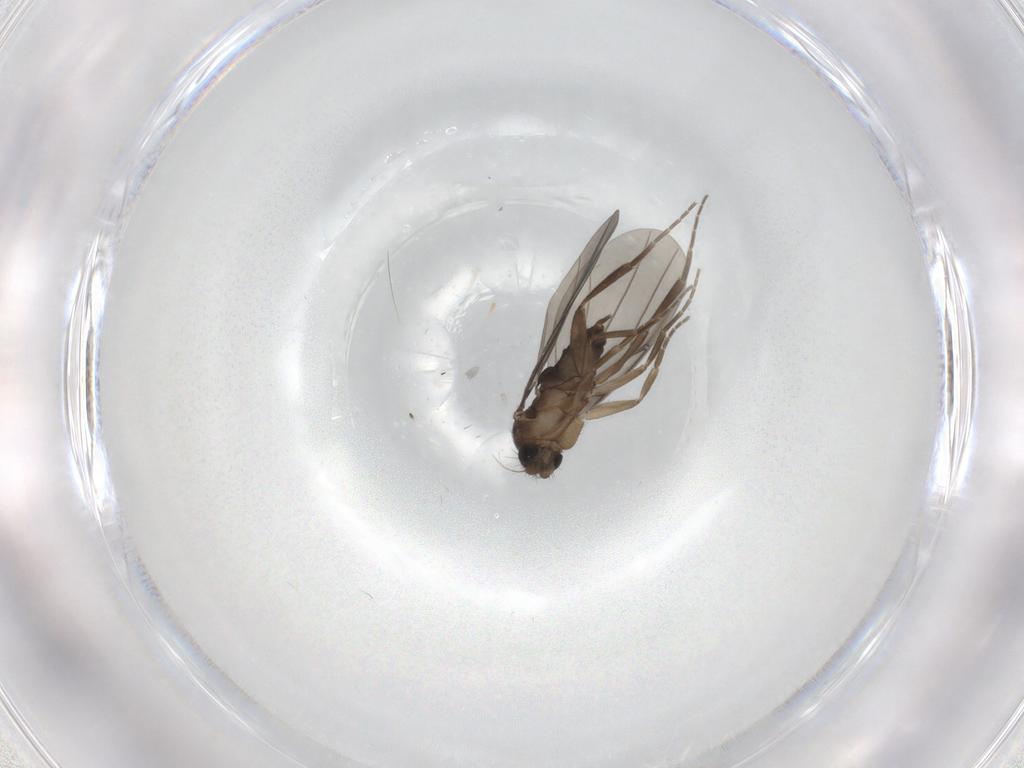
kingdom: Animalia
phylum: Arthropoda
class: Insecta
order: Diptera
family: Phoridae
